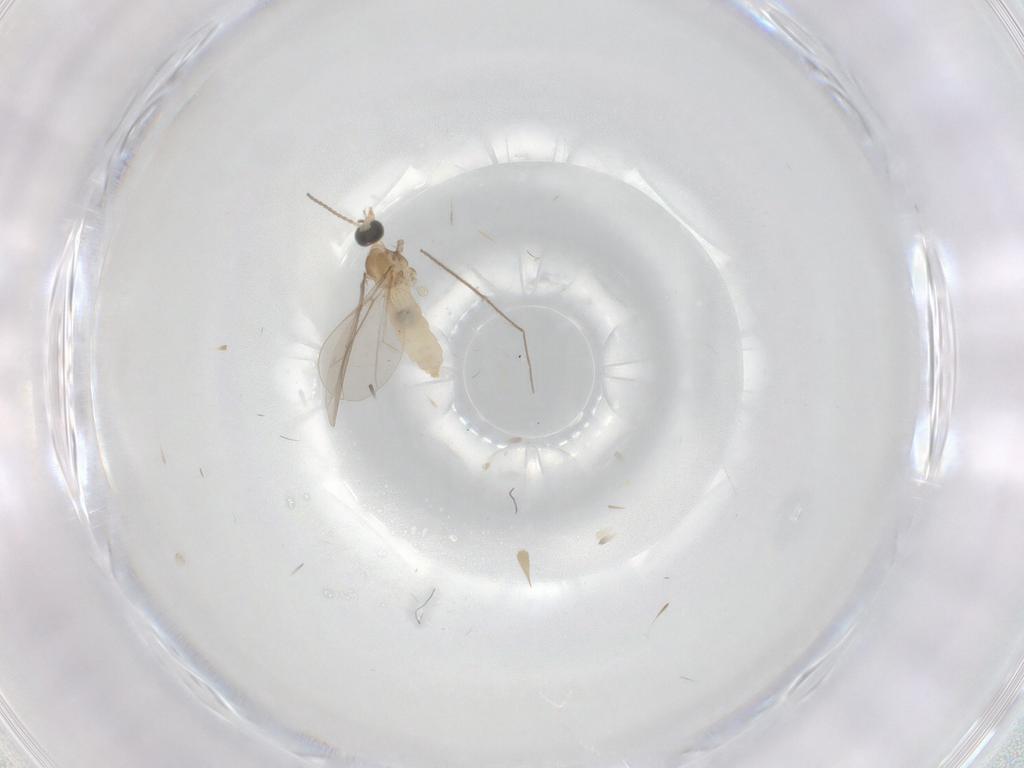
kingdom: Animalia
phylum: Arthropoda
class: Insecta
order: Diptera
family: Cecidomyiidae
